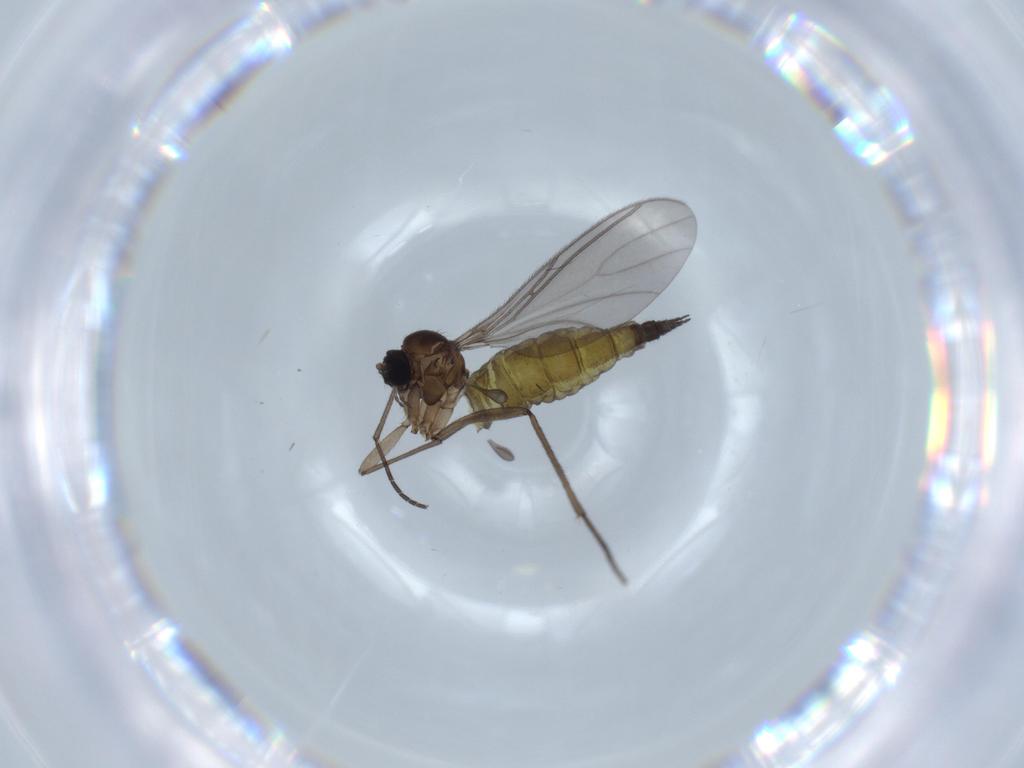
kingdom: Animalia
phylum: Arthropoda
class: Insecta
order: Diptera
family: Sciaridae
